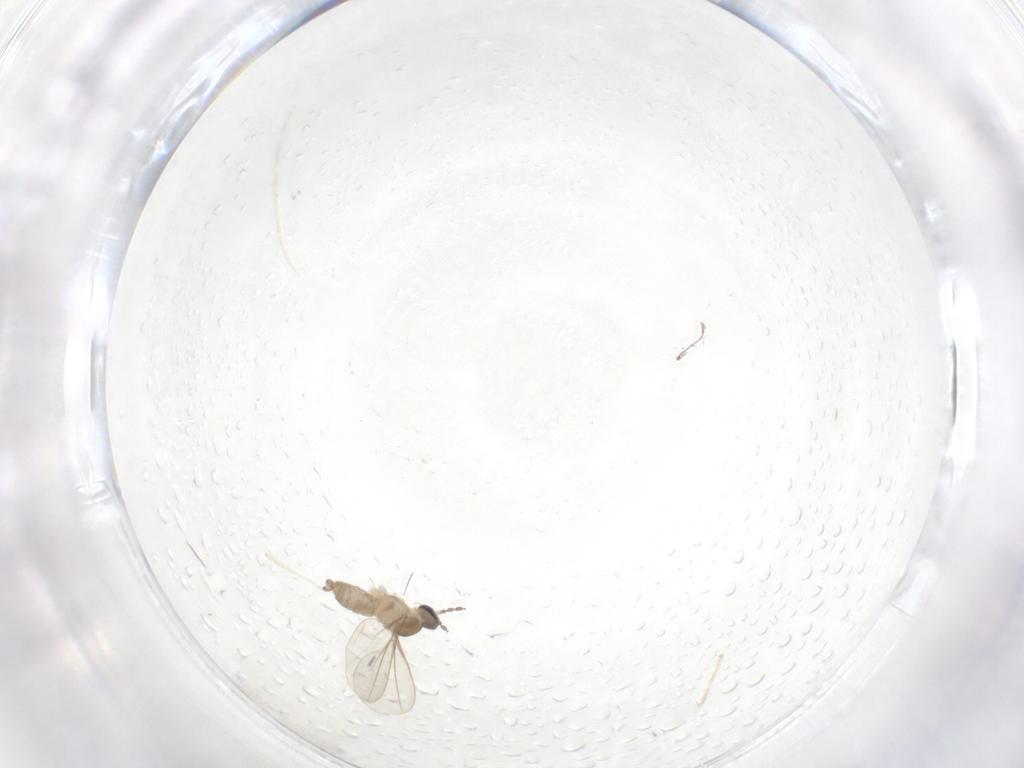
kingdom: Animalia
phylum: Arthropoda
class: Insecta
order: Diptera
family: Cecidomyiidae
